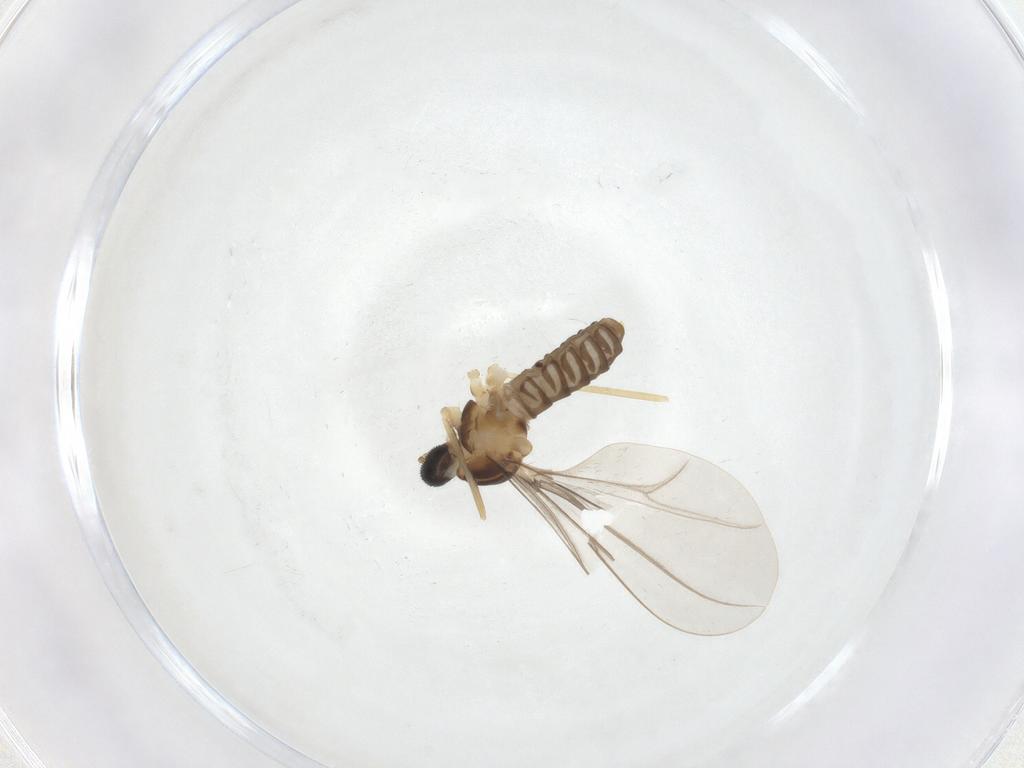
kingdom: Animalia
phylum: Arthropoda
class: Insecta
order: Diptera
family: Cecidomyiidae
